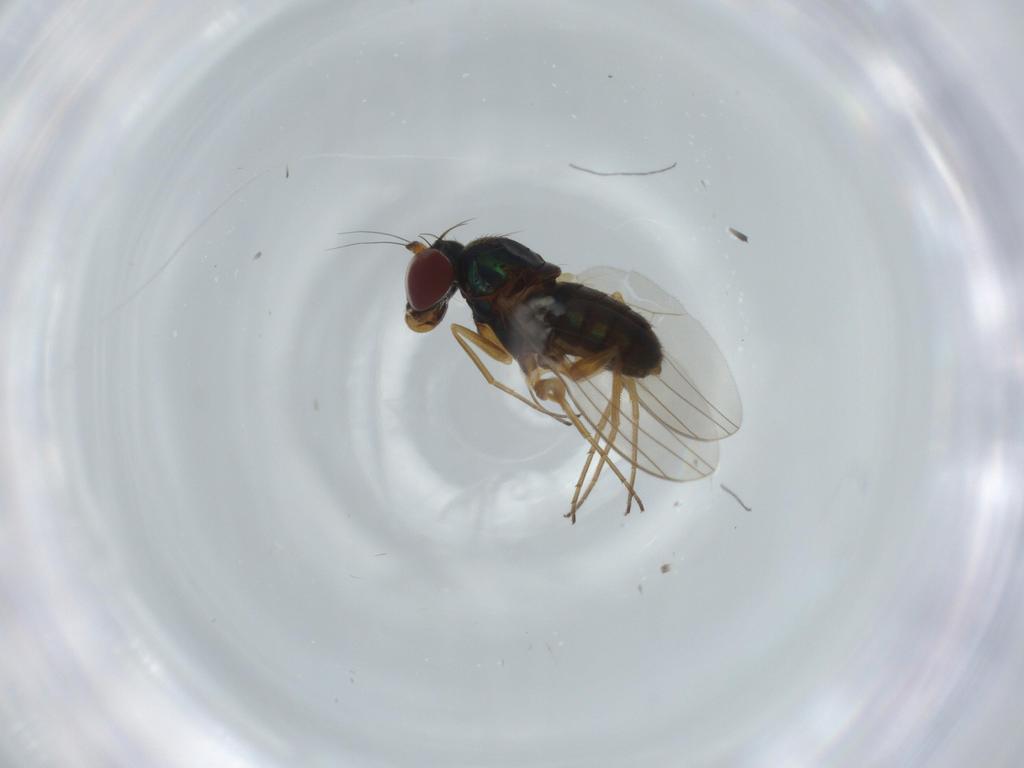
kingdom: Animalia
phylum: Arthropoda
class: Insecta
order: Diptera
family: Dolichopodidae
